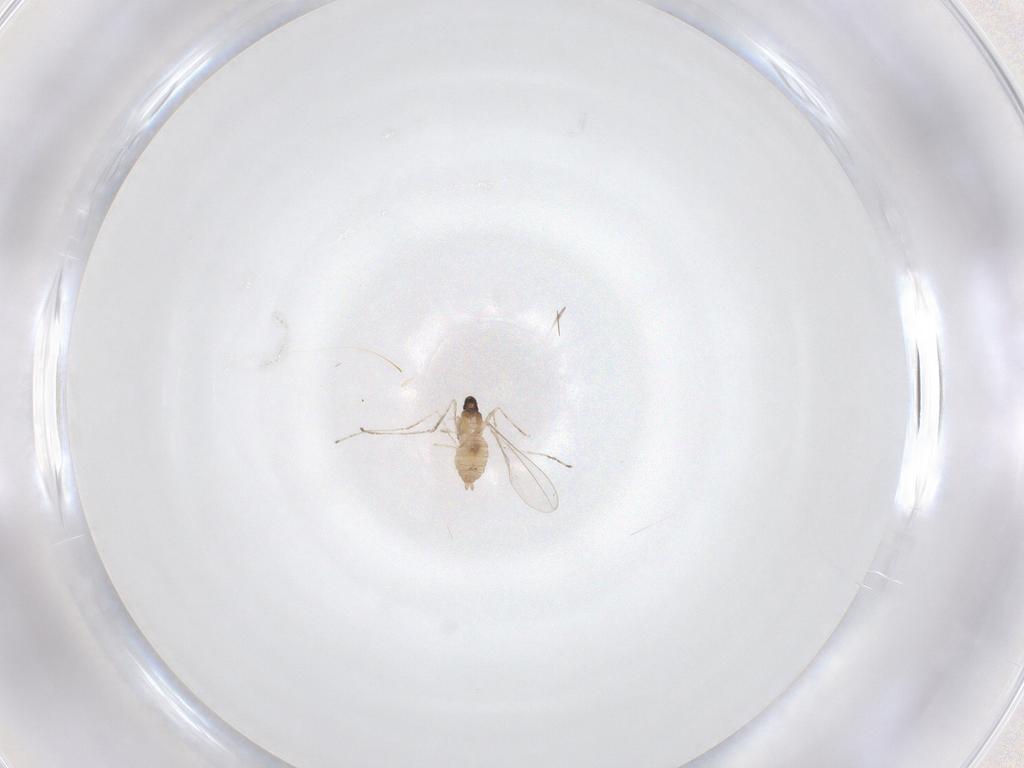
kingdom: Animalia
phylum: Arthropoda
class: Insecta
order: Diptera
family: Cecidomyiidae
